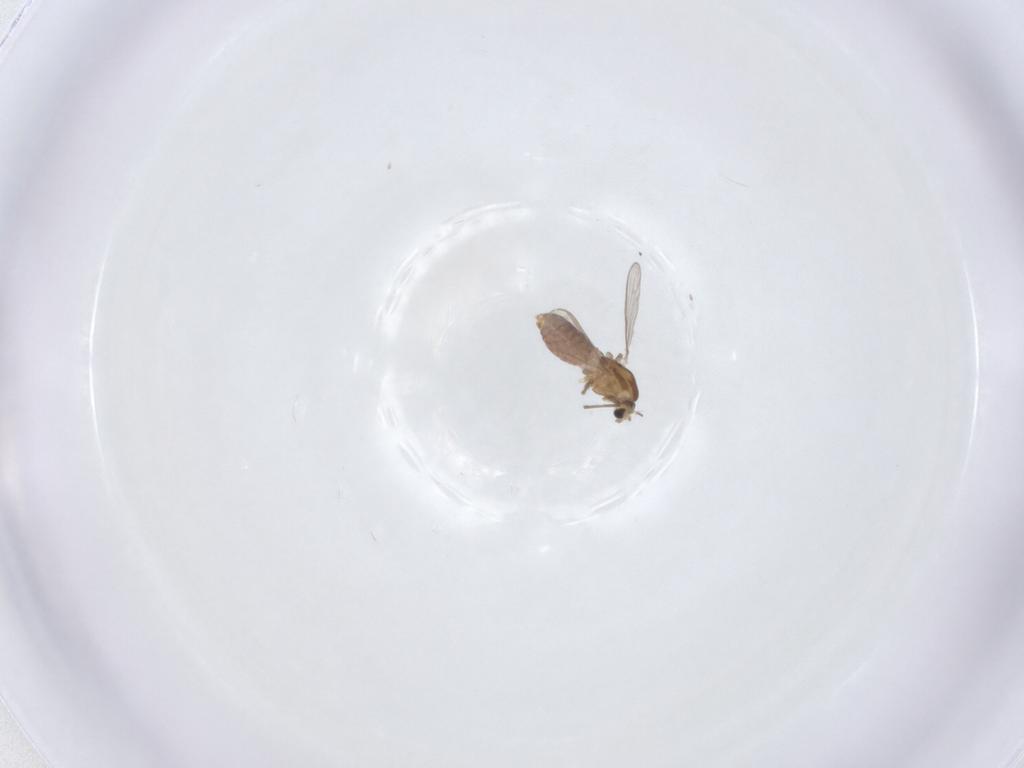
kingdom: Animalia
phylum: Arthropoda
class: Insecta
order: Diptera
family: Chironomidae
